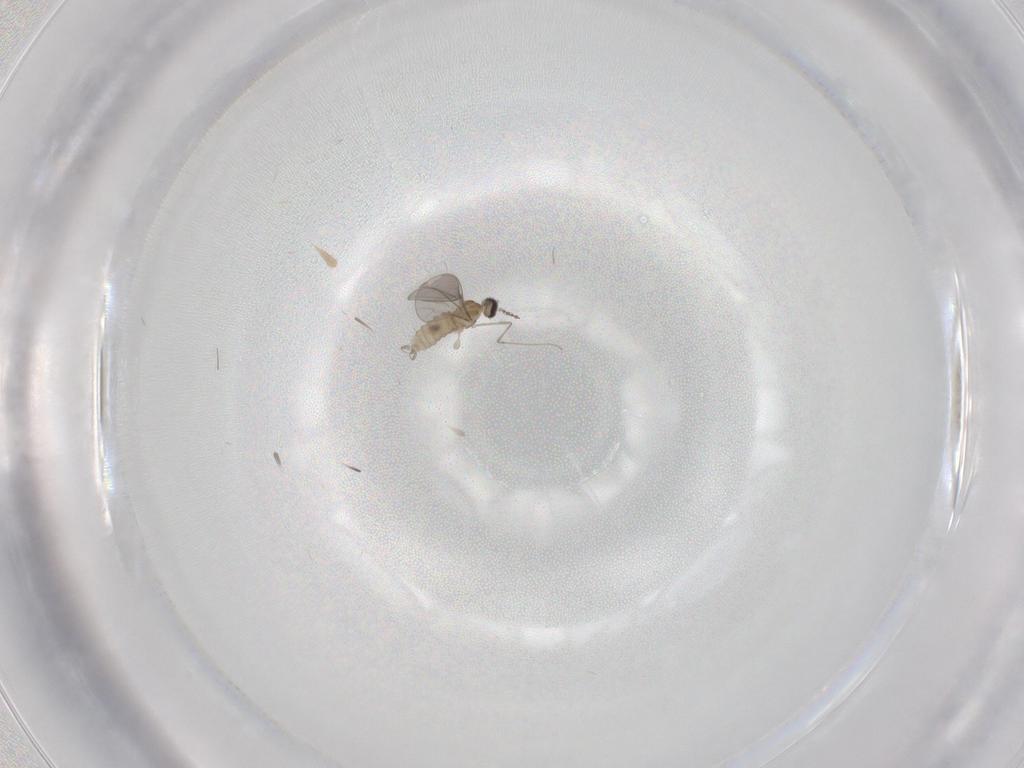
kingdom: Animalia
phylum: Arthropoda
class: Insecta
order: Diptera
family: Cecidomyiidae
